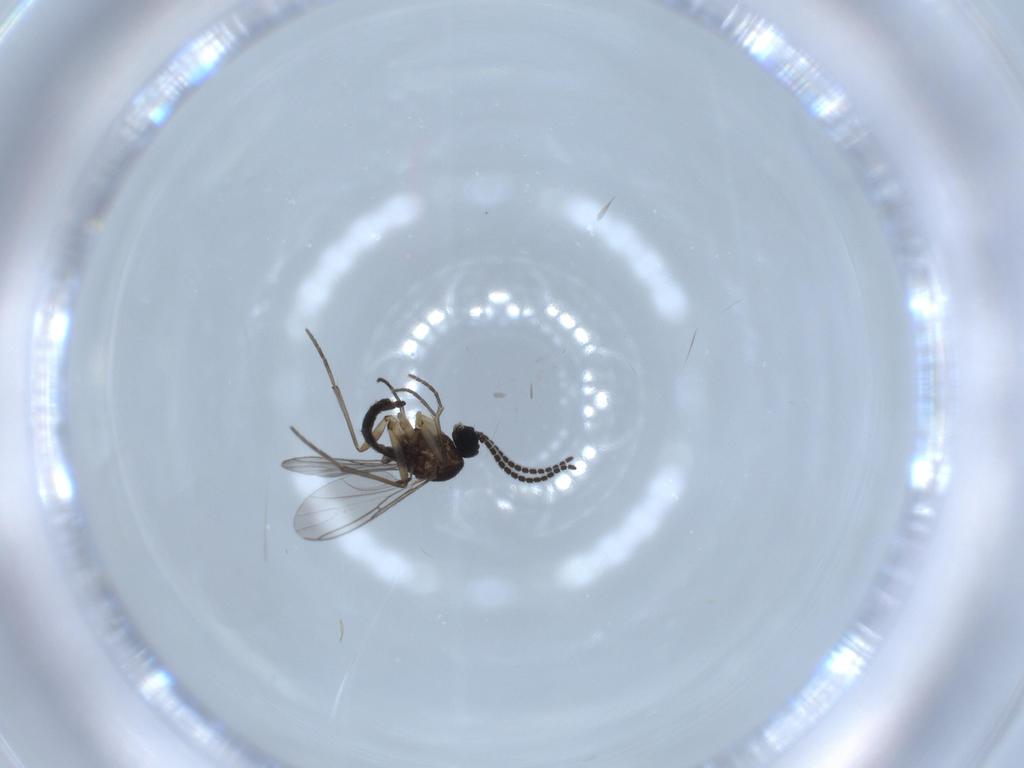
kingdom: Animalia
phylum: Arthropoda
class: Insecta
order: Diptera
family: Sciaridae
